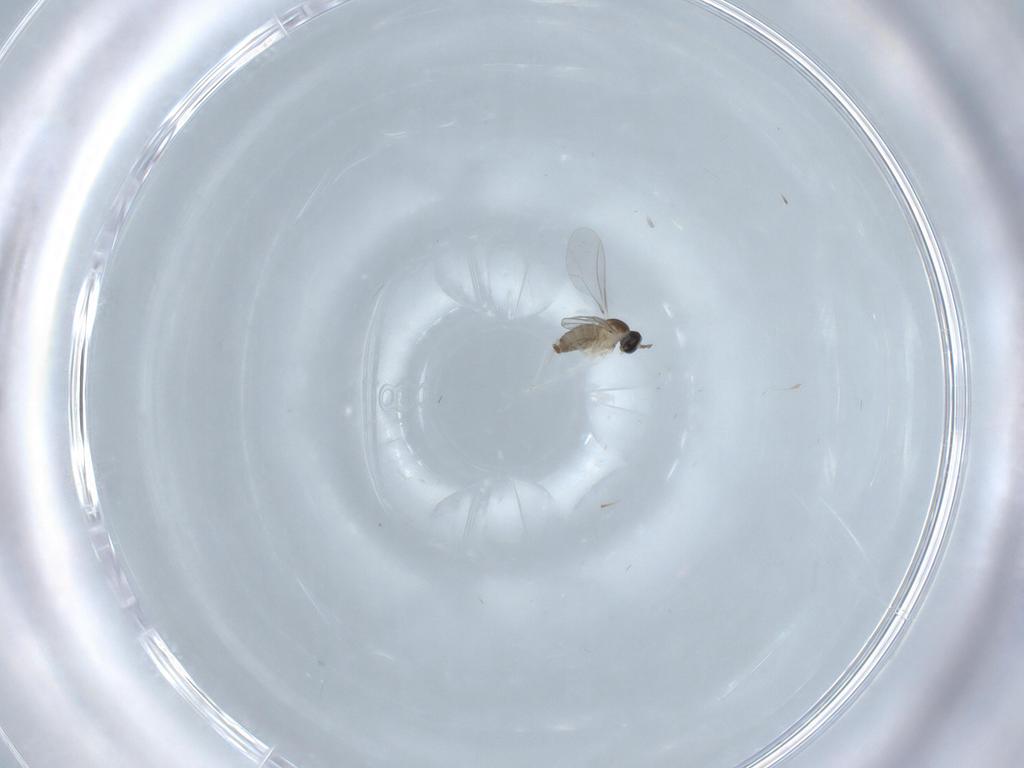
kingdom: Animalia
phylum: Arthropoda
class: Insecta
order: Diptera
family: Cecidomyiidae
